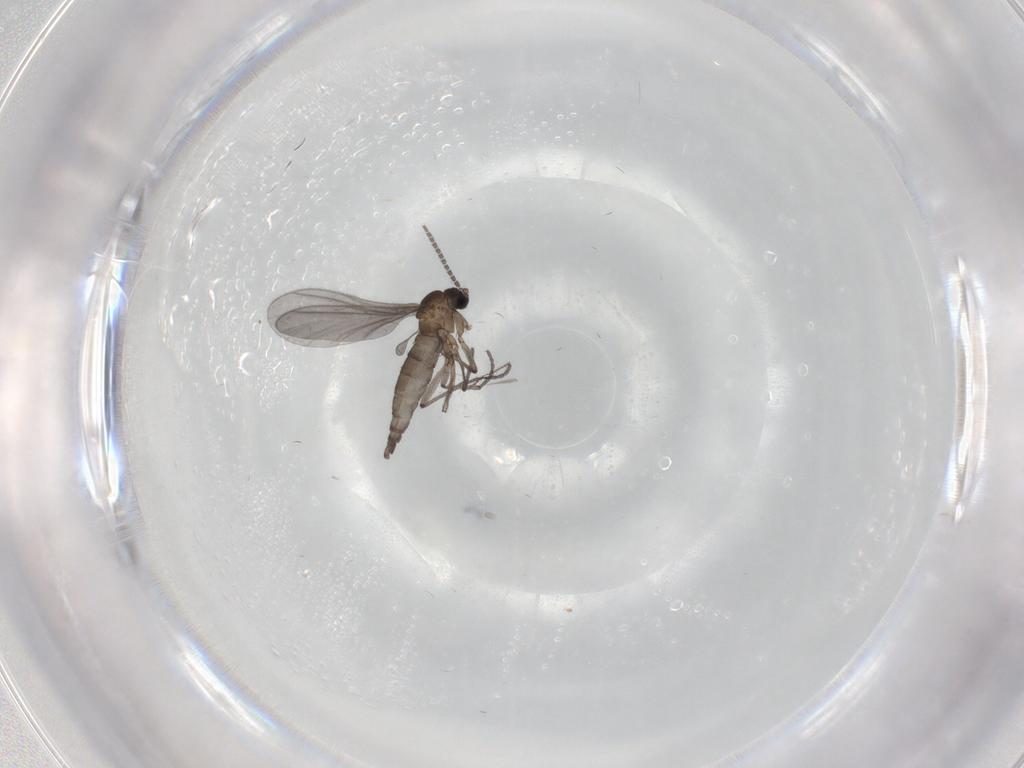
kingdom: Animalia
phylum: Arthropoda
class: Insecta
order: Diptera
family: Sciaridae
